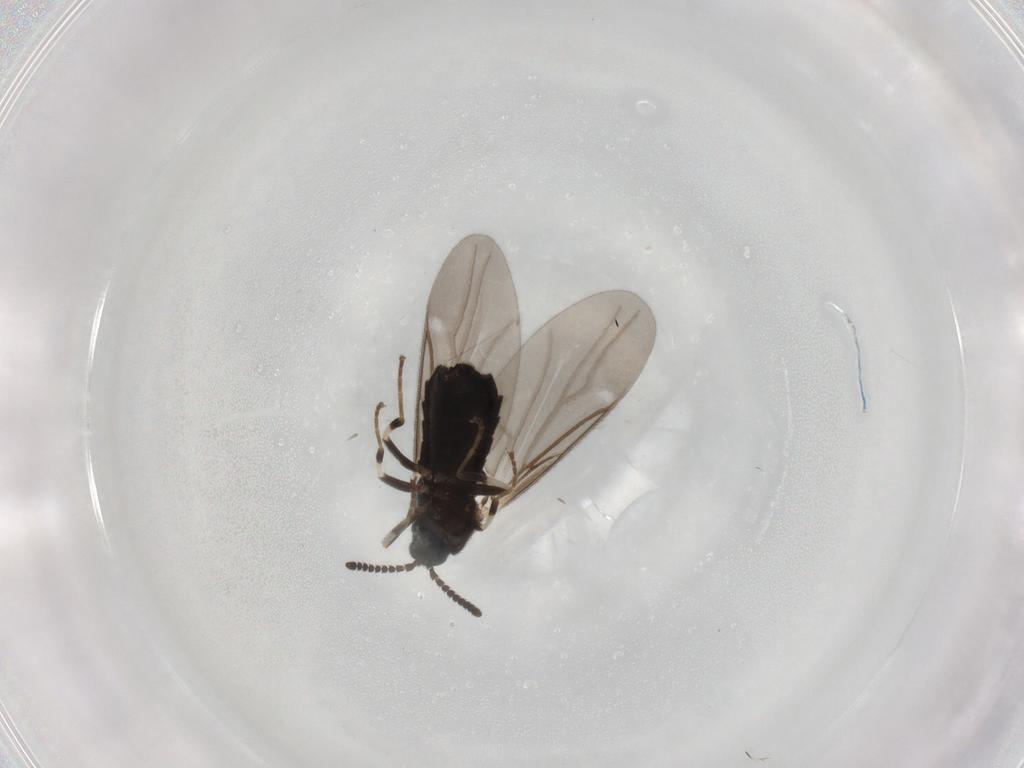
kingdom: Animalia
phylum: Arthropoda
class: Insecta
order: Diptera
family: Scatopsidae
